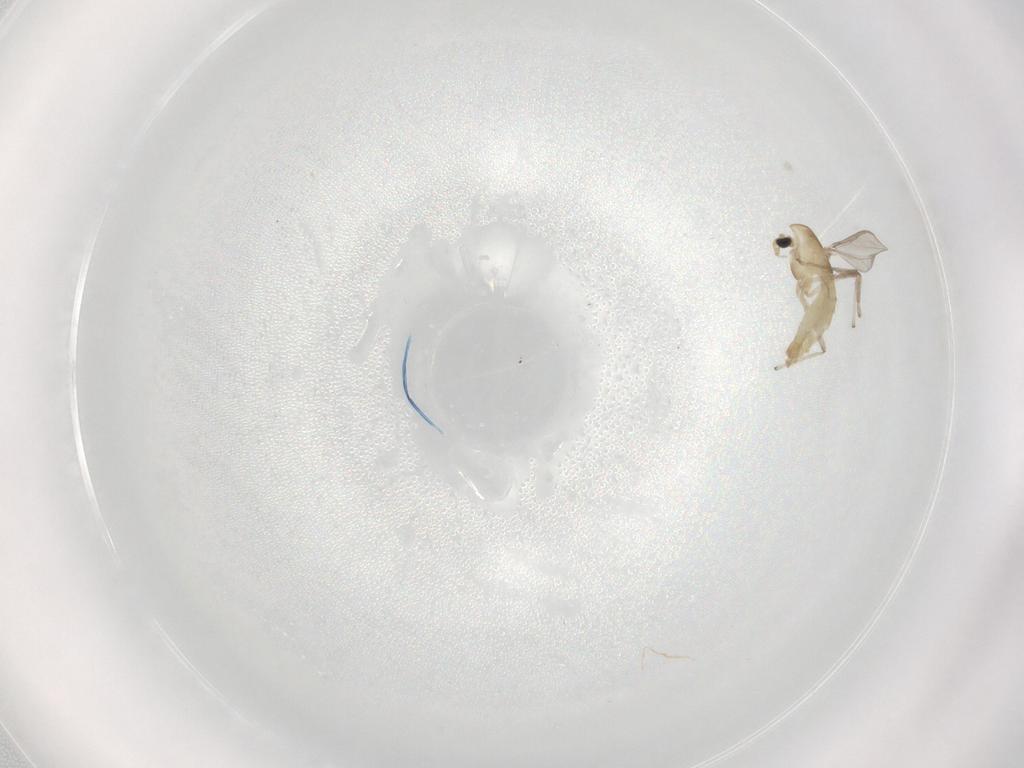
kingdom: Animalia
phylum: Arthropoda
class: Insecta
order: Diptera
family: Chironomidae
